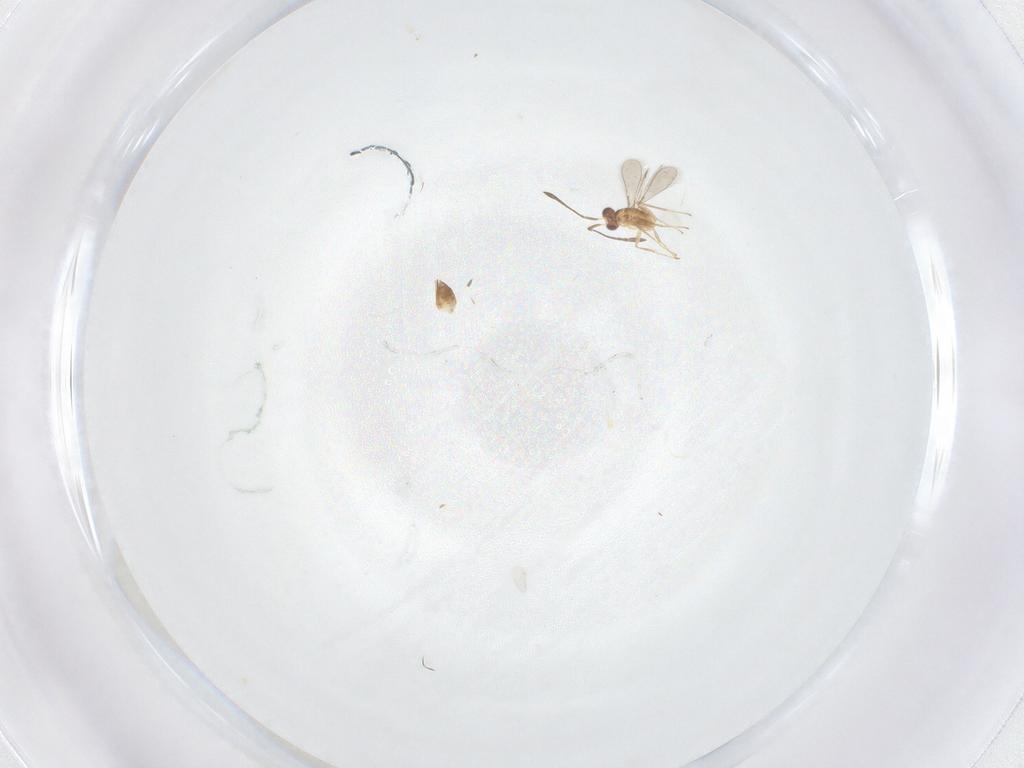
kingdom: Animalia
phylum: Arthropoda
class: Insecta
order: Hymenoptera
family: Mymaridae
